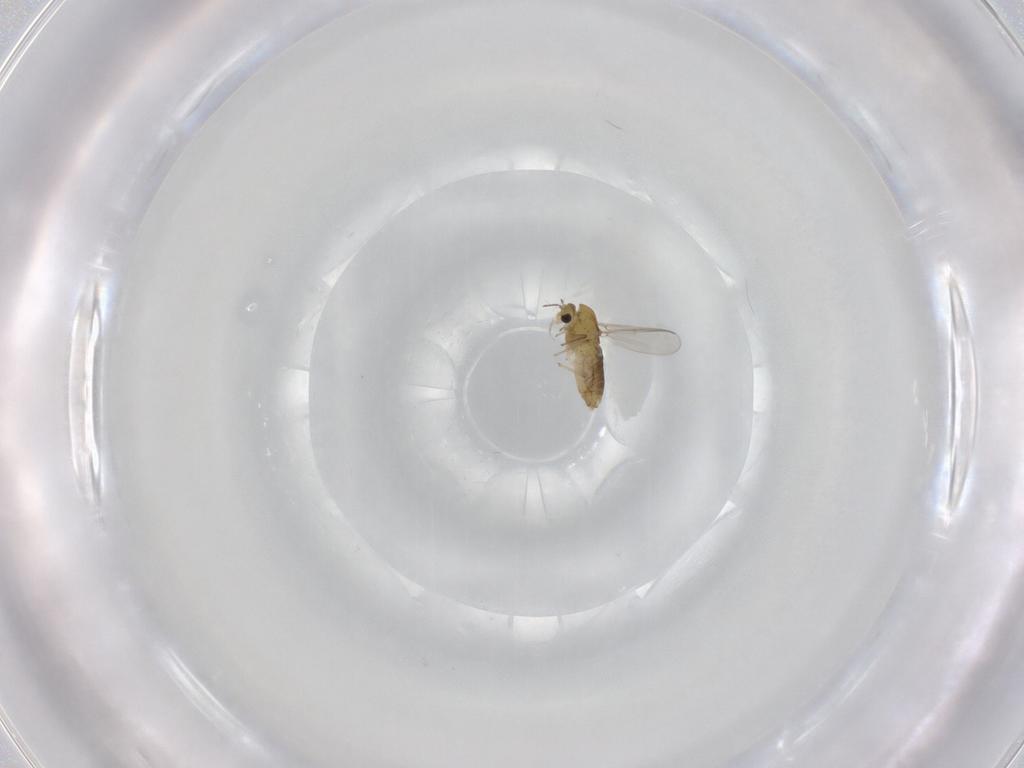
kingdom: Animalia
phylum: Arthropoda
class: Insecta
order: Diptera
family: Chironomidae
